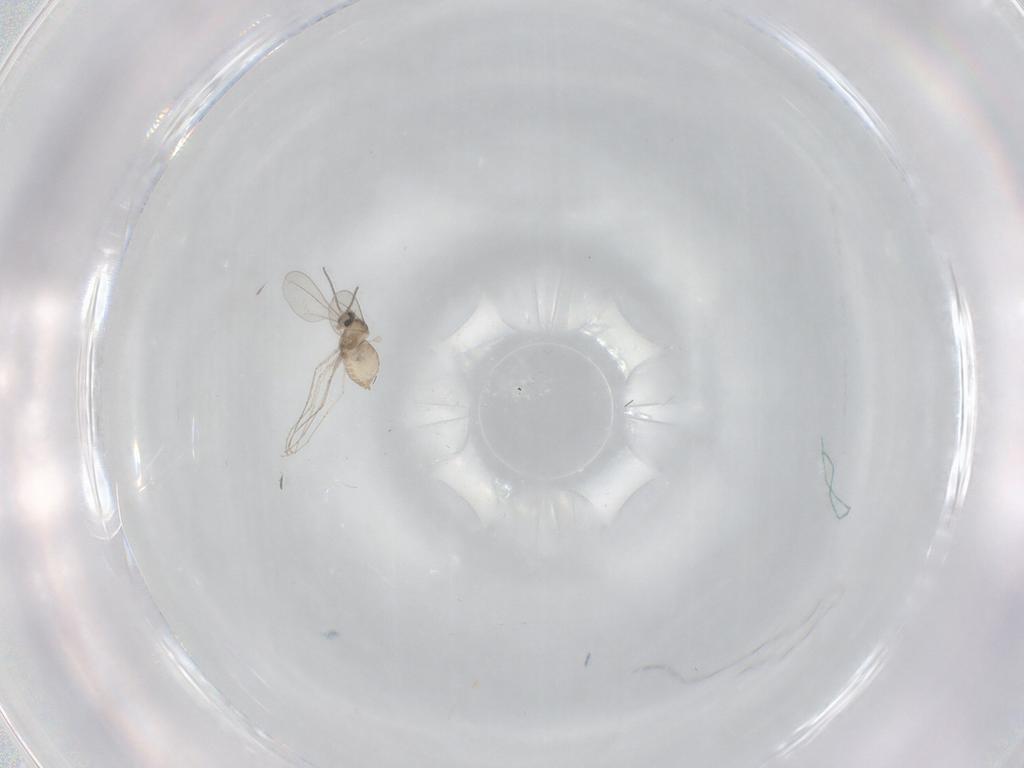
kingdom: Animalia
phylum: Arthropoda
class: Insecta
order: Diptera
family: Cecidomyiidae
